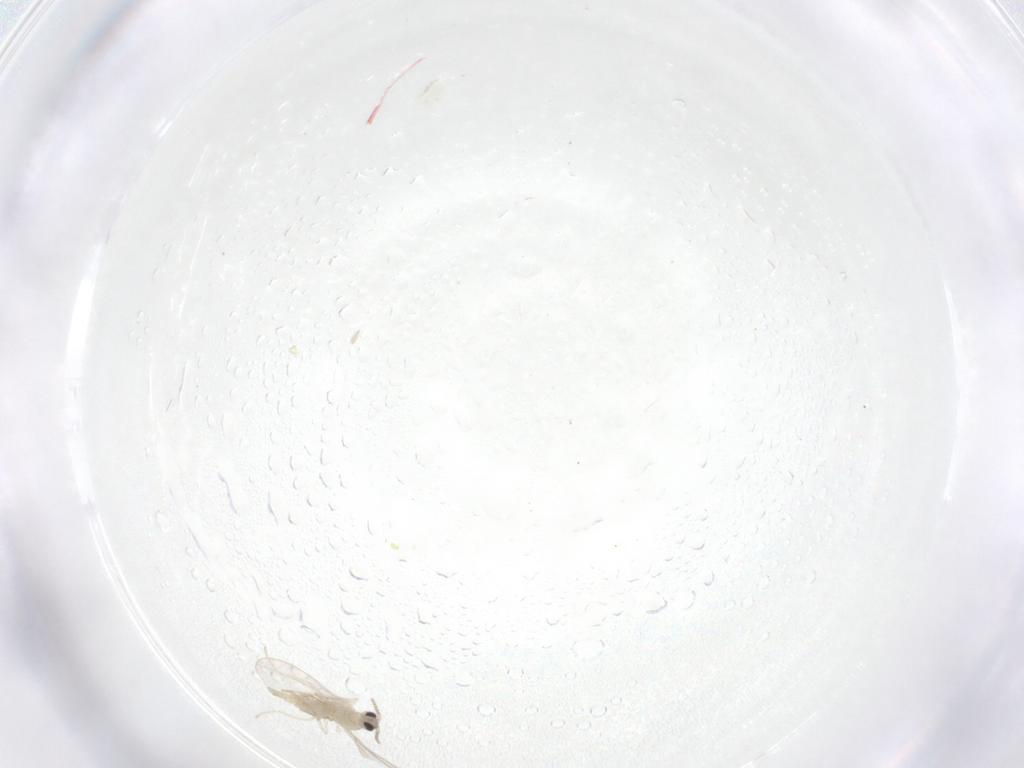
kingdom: Animalia
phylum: Arthropoda
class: Insecta
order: Diptera
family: Cecidomyiidae
